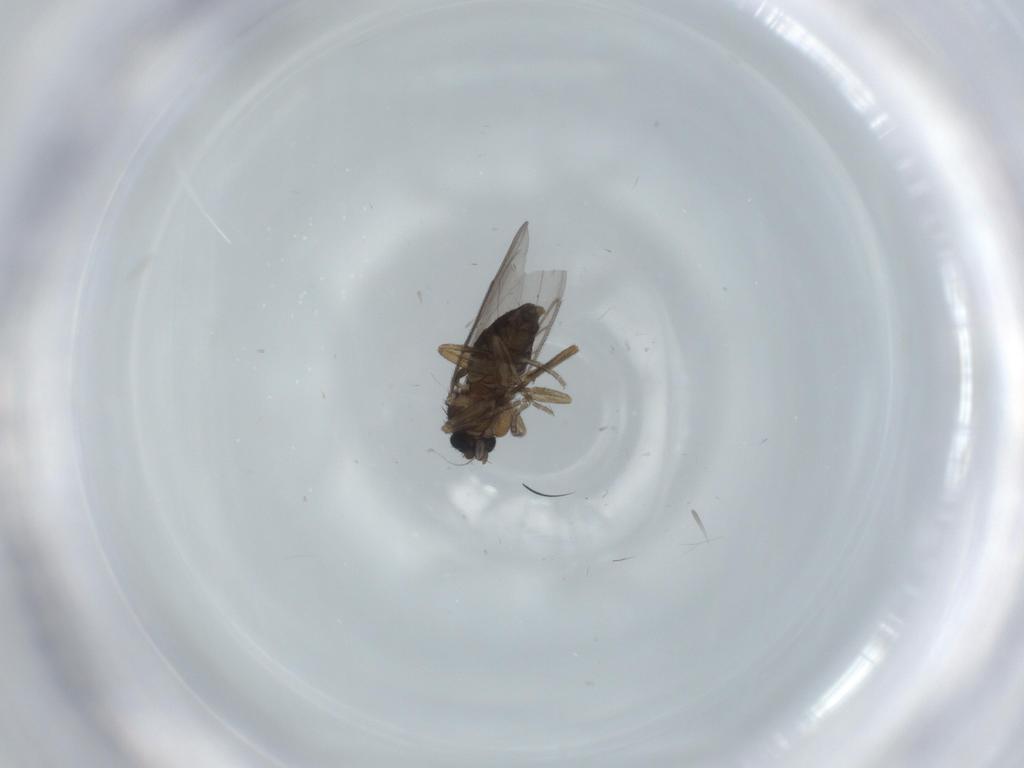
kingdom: Animalia
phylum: Arthropoda
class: Insecta
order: Diptera
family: Phoridae
